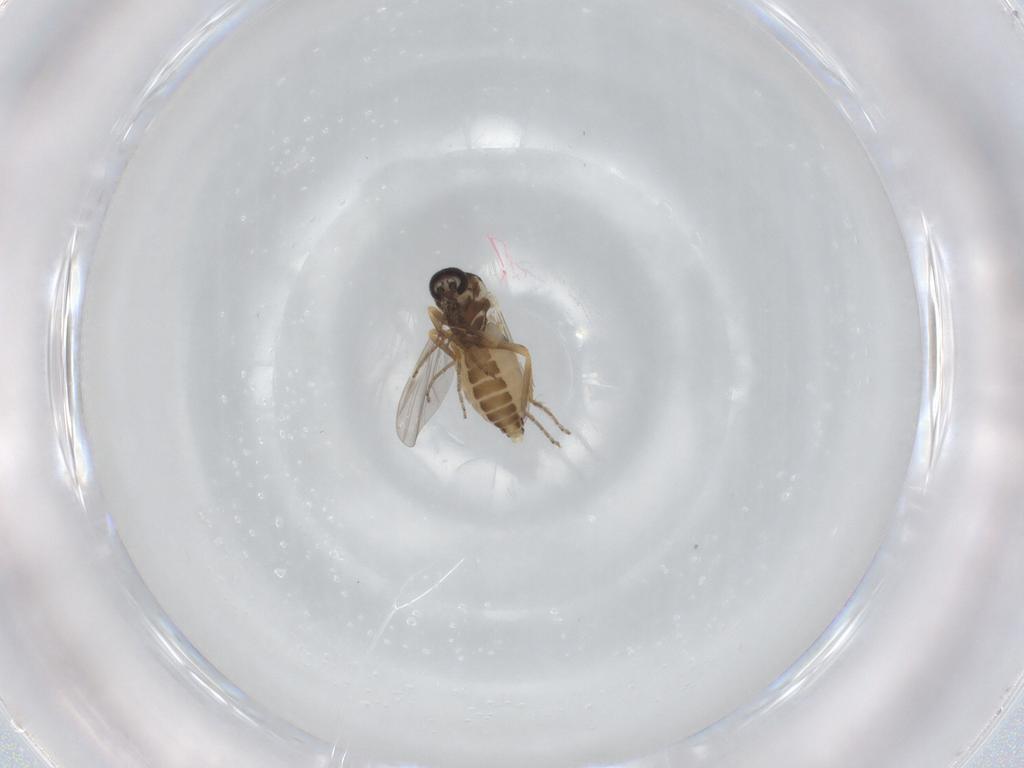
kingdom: Animalia
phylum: Arthropoda
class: Insecta
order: Diptera
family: Ceratopogonidae
